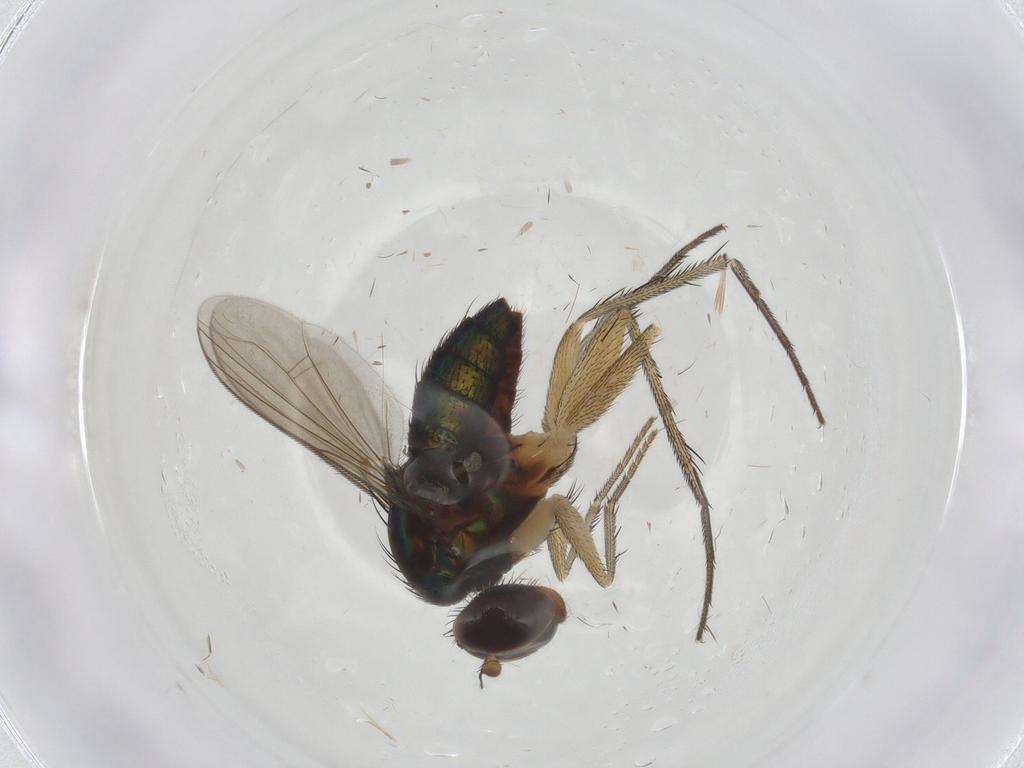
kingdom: Animalia
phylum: Arthropoda
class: Insecta
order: Diptera
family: Dolichopodidae
